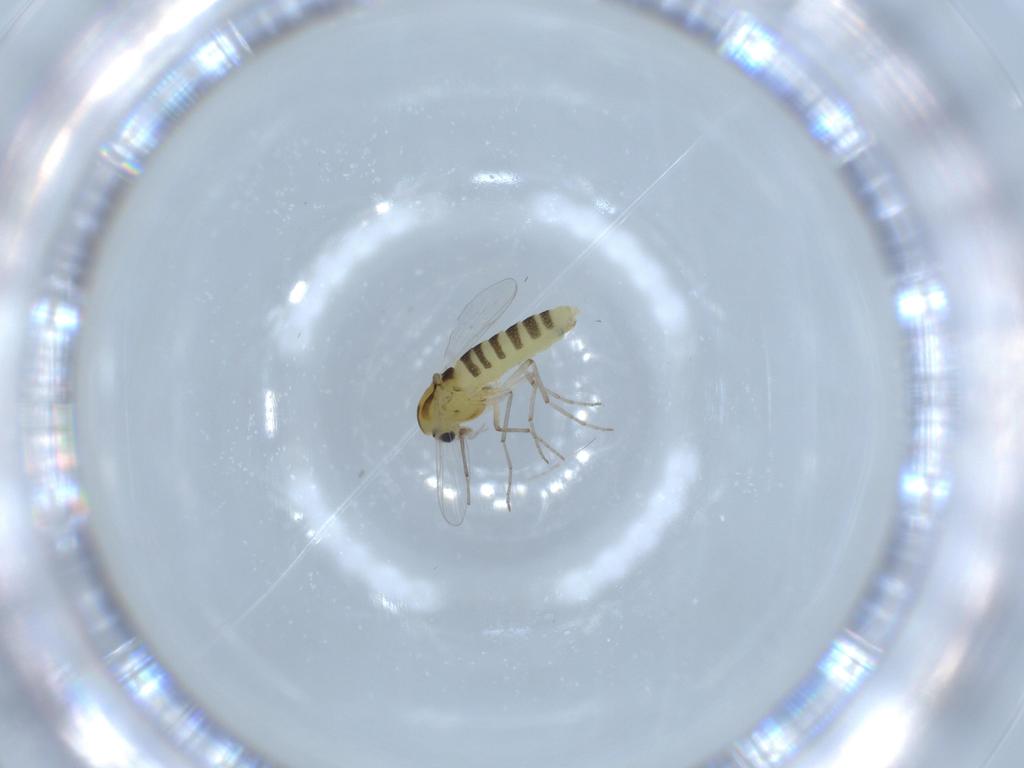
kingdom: Animalia
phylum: Arthropoda
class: Insecta
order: Diptera
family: Chironomidae
